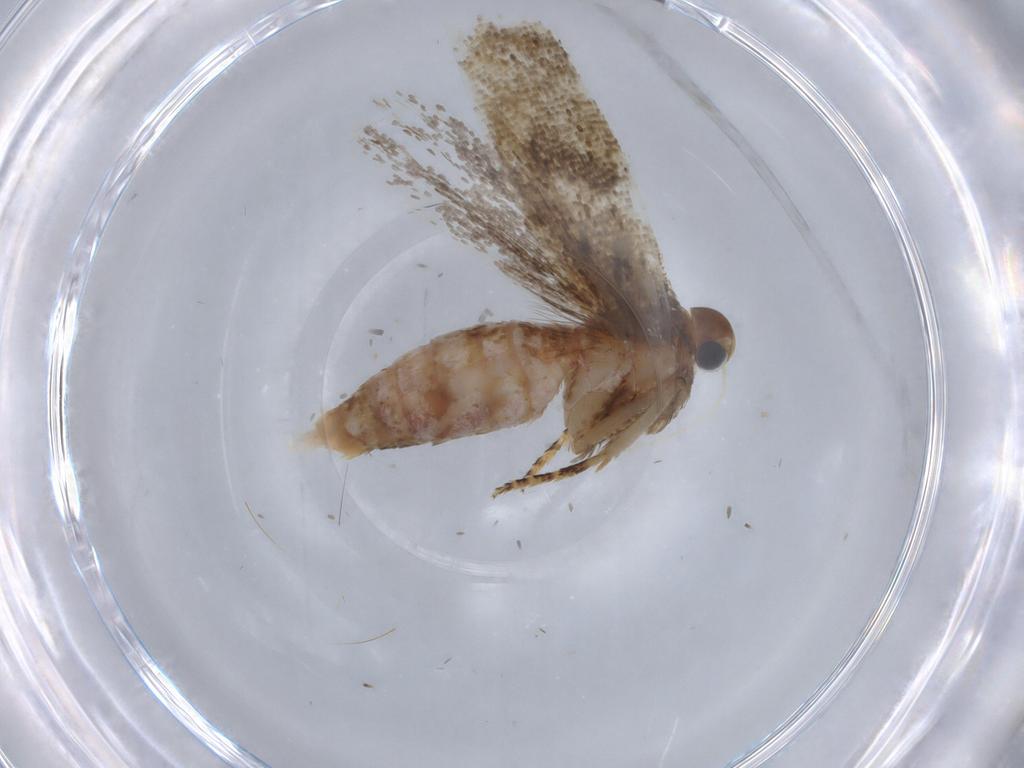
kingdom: Animalia
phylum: Arthropoda
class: Insecta
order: Lepidoptera
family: Gelechiidae
